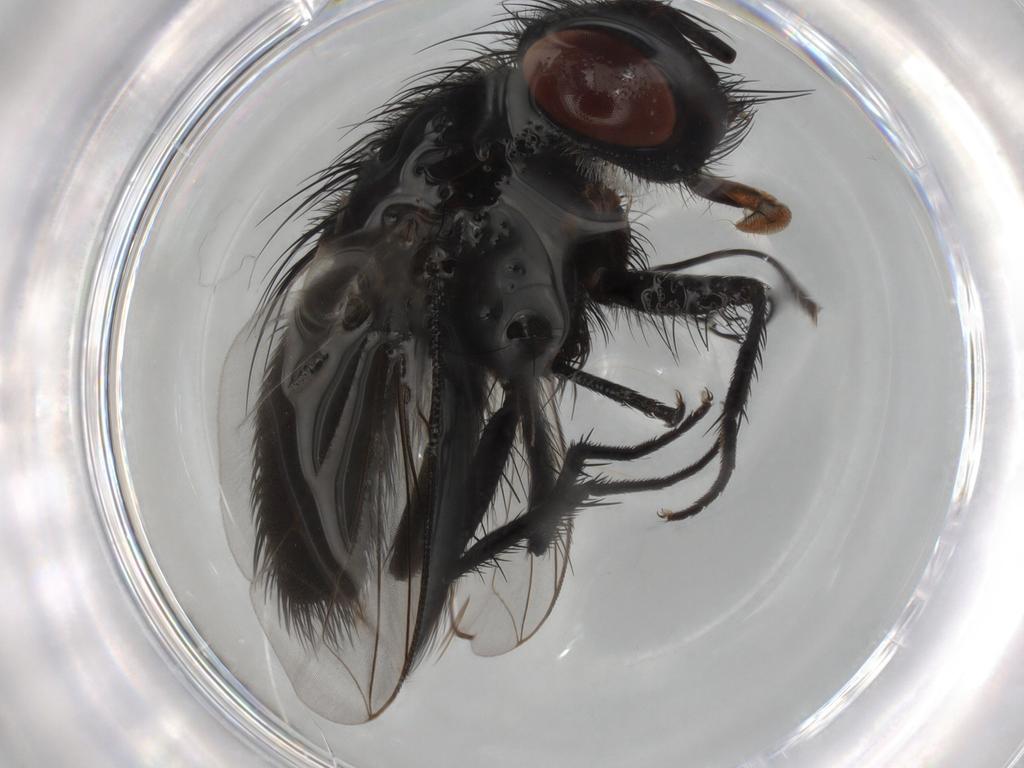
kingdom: Animalia
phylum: Arthropoda
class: Insecta
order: Diptera
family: Tachinidae
